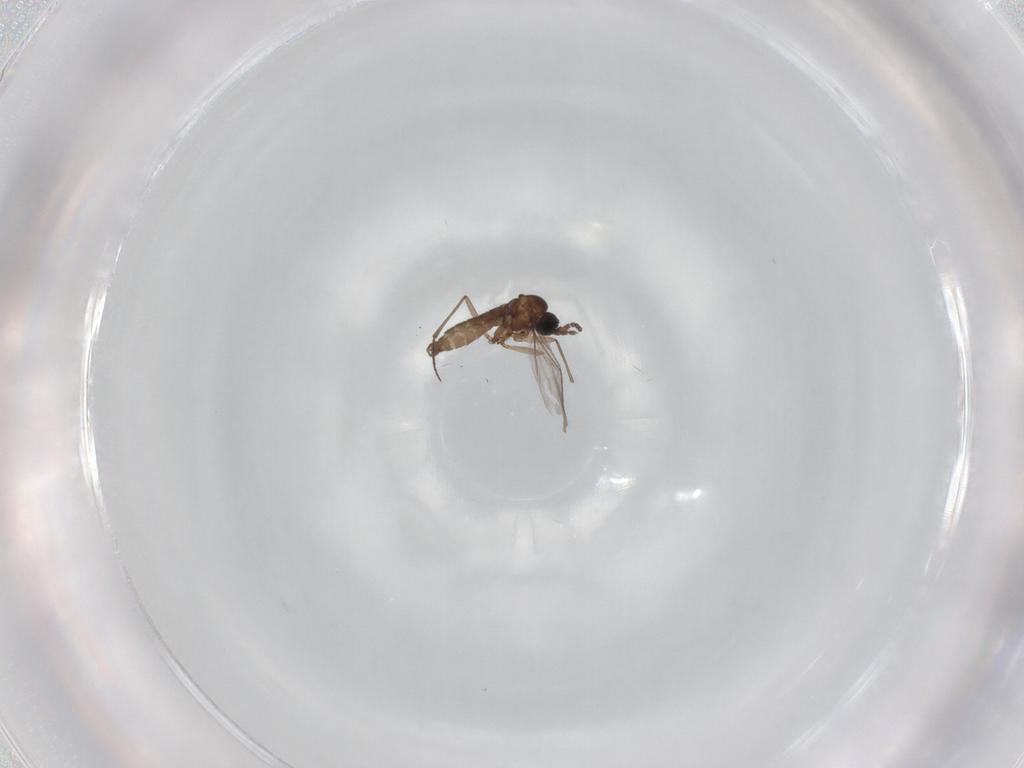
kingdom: Animalia
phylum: Arthropoda
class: Insecta
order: Diptera
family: Sciaridae
